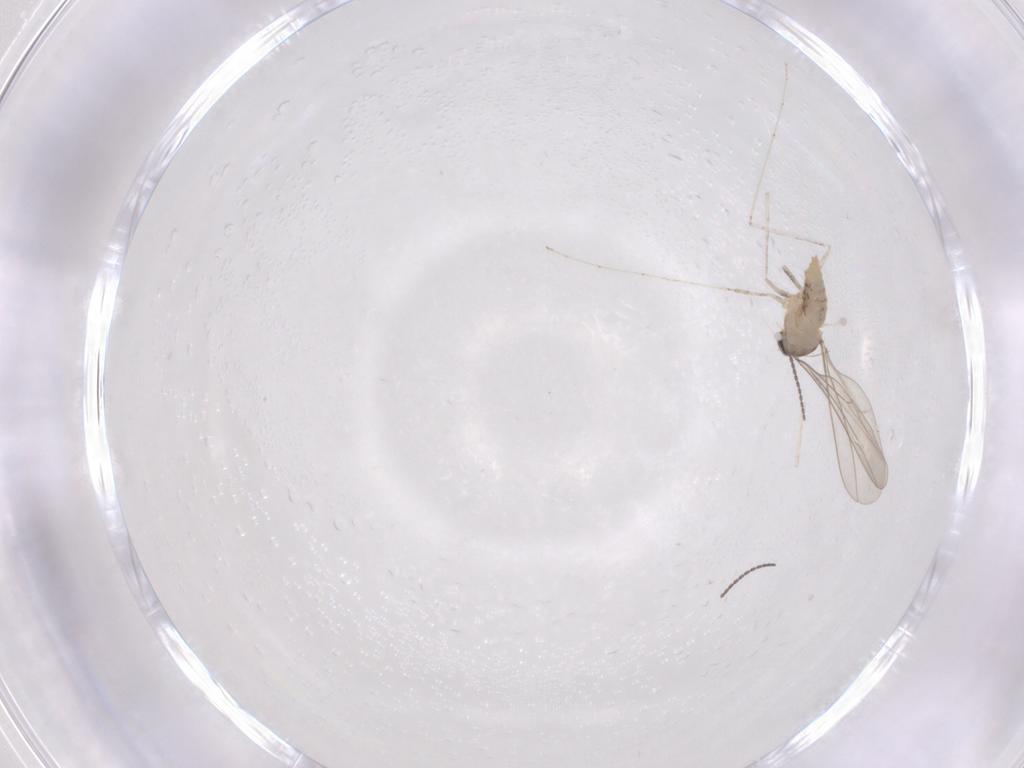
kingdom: Animalia
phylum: Arthropoda
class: Insecta
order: Diptera
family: Cecidomyiidae
